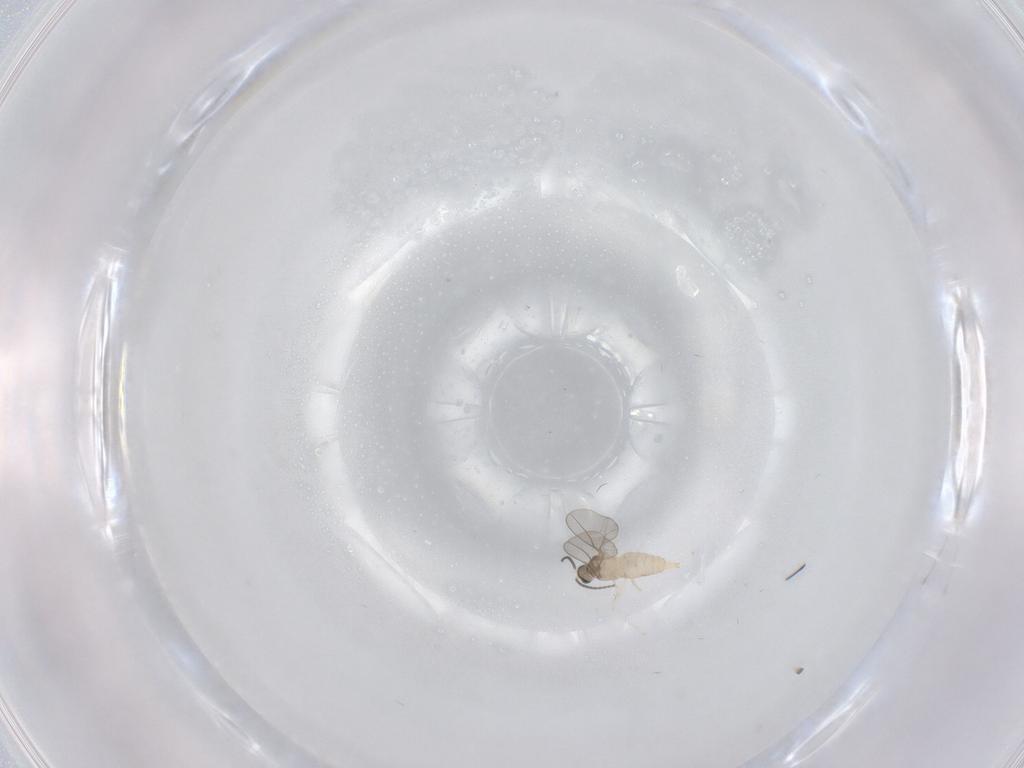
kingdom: Animalia
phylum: Arthropoda
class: Insecta
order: Diptera
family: Cecidomyiidae
